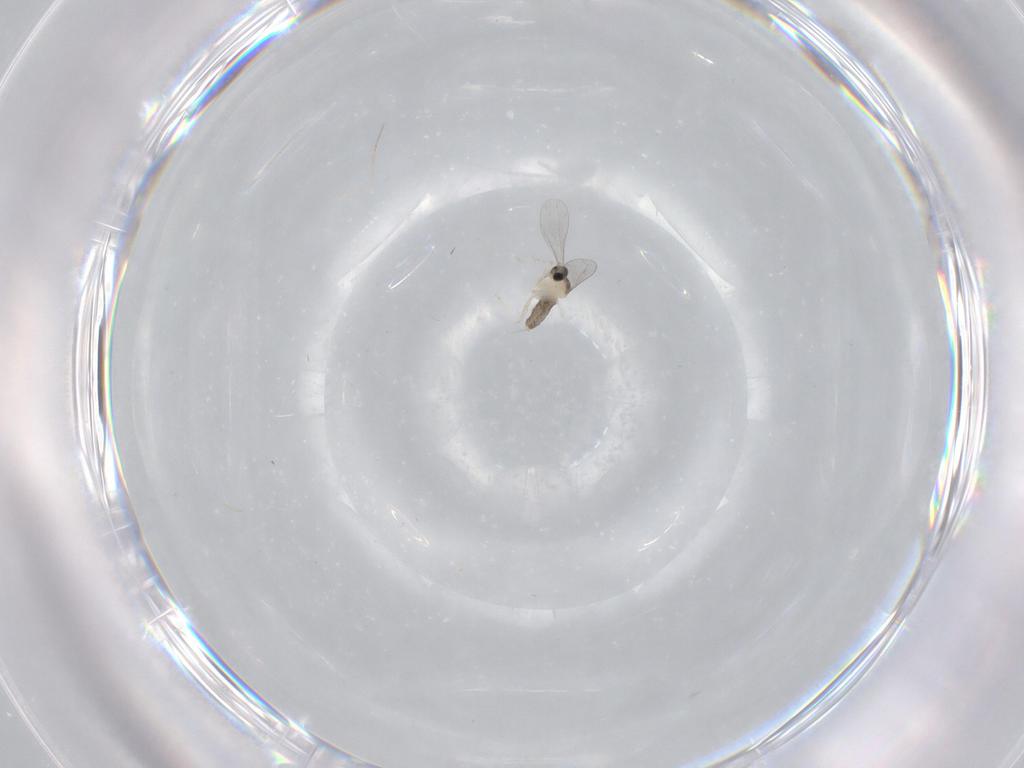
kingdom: Animalia
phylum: Arthropoda
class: Insecta
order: Diptera
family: Cecidomyiidae
